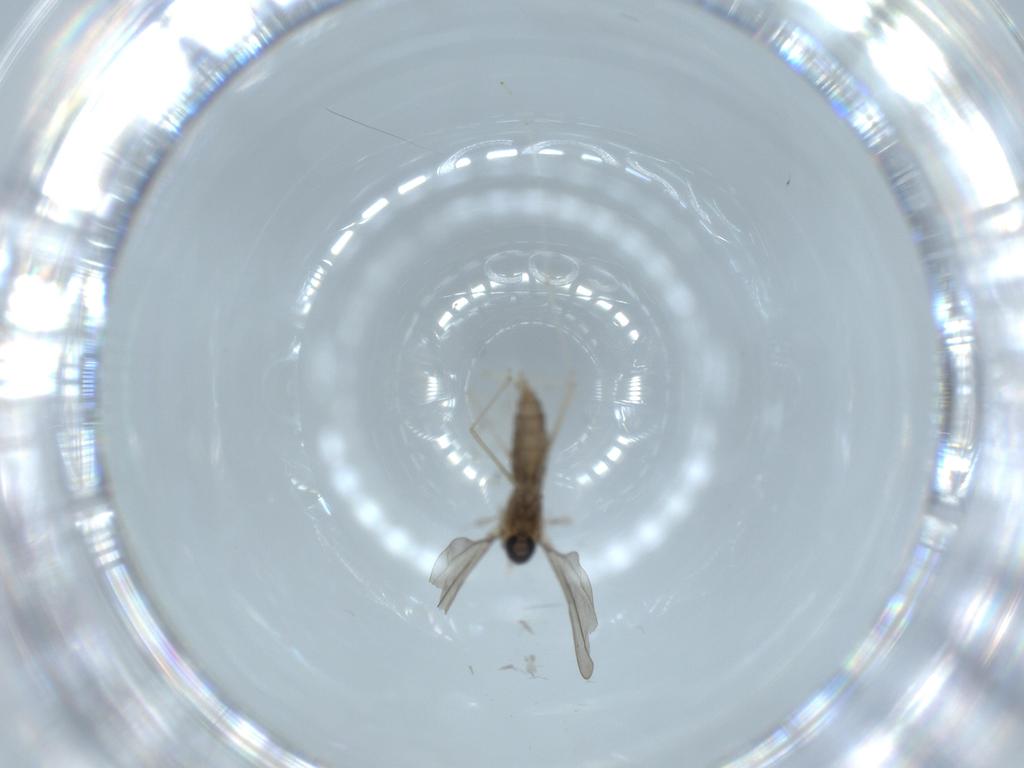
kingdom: Animalia
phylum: Arthropoda
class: Insecta
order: Diptera
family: Cecidomyiidae
